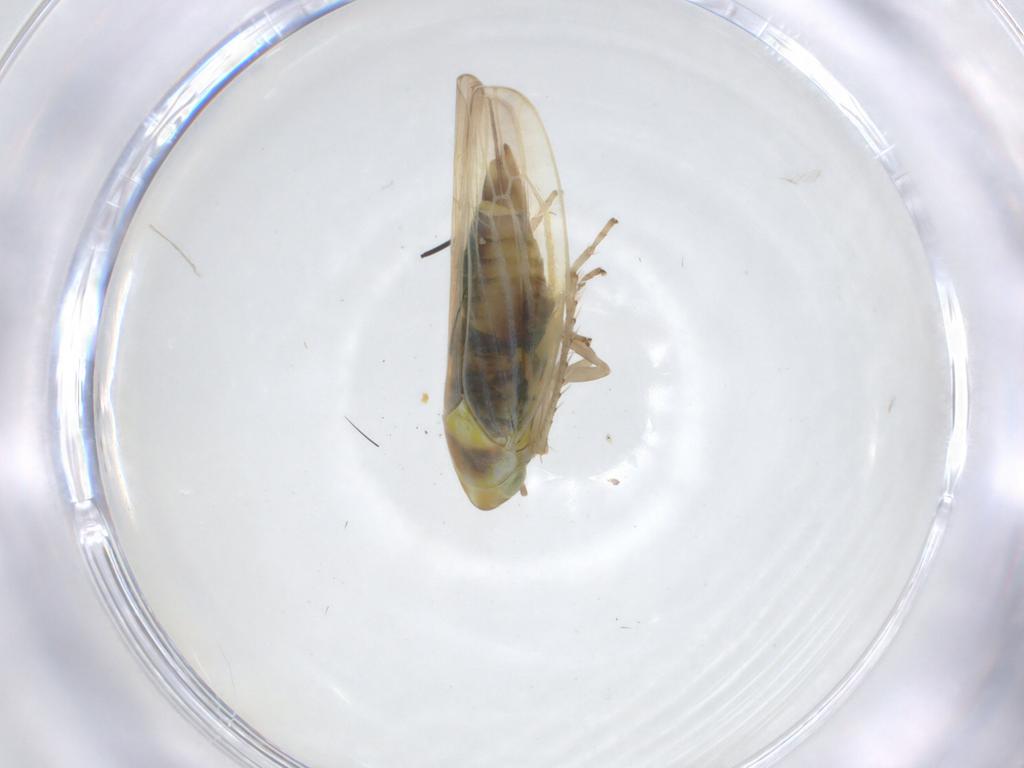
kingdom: Animalia
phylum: Arthropoda
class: Insecta
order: Hemiptera
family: Cicadellidae
